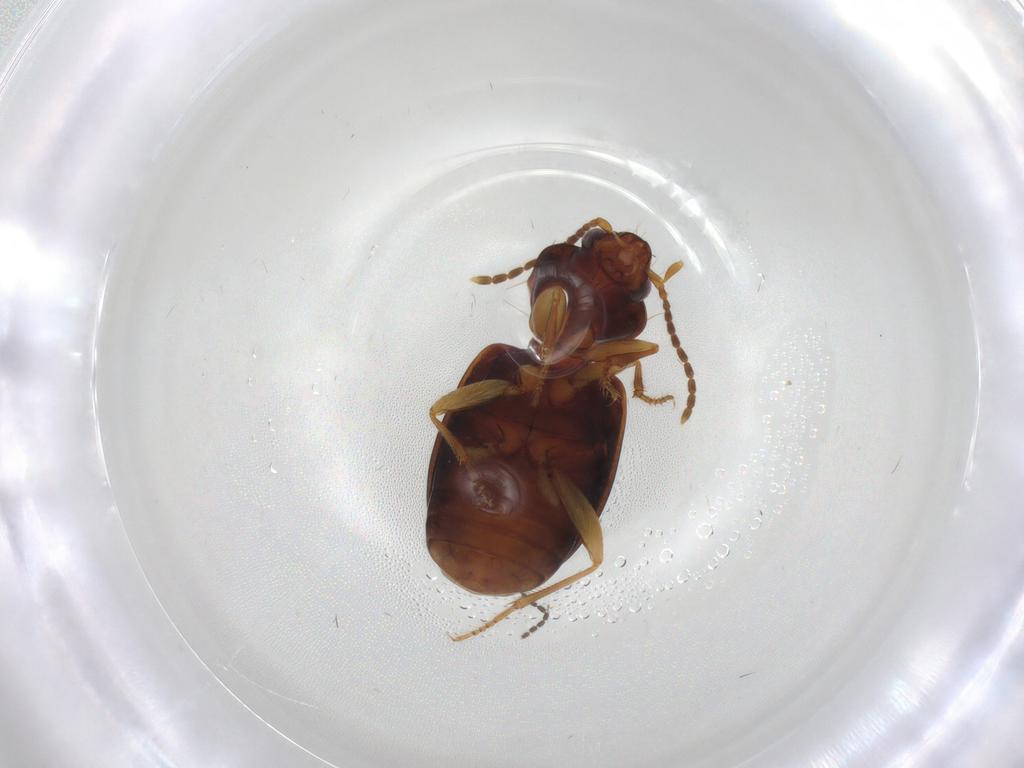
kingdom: Animalia
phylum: Arthropoda
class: Insecta
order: Coleoptera
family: Carabidae
